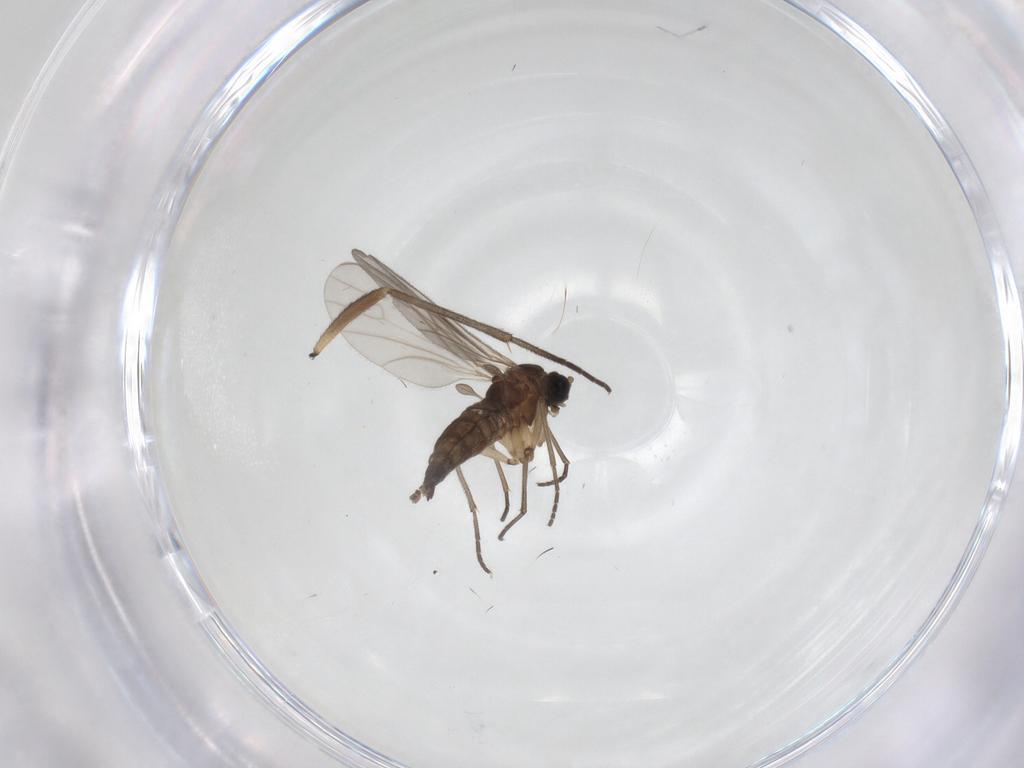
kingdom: Animalia
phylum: Arthropoda
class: Insecta
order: Diptera
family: Sciaridae
